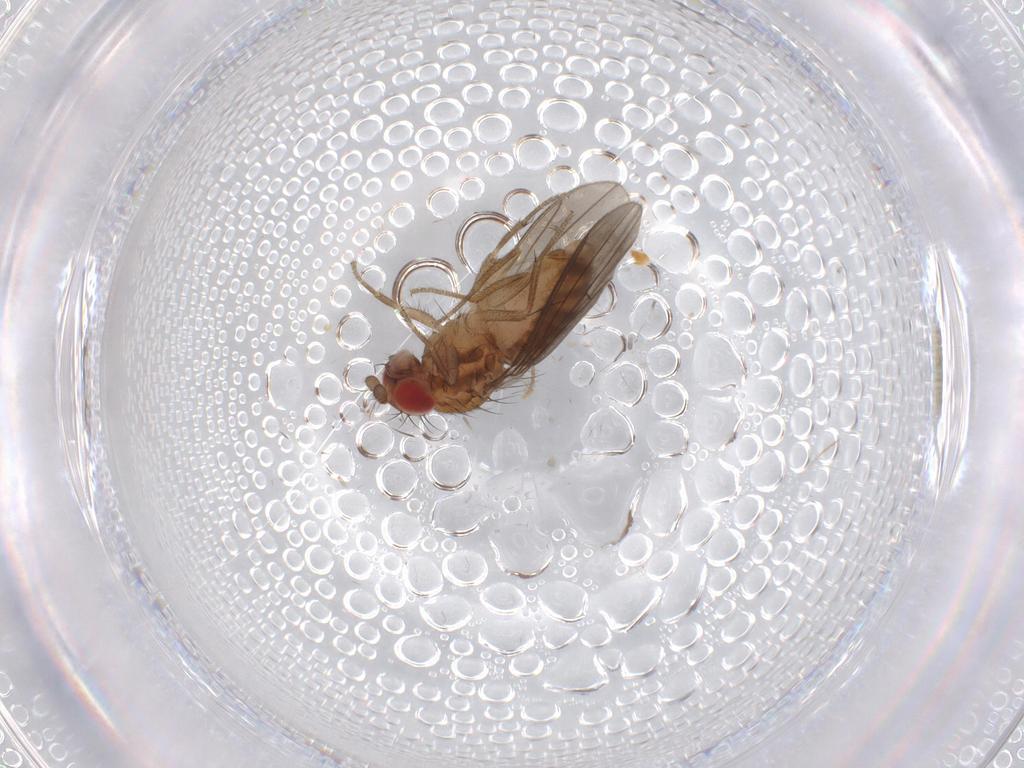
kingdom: Animalia
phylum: Arthropoda
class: Insecta
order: Diptera
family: Drosophilidae
